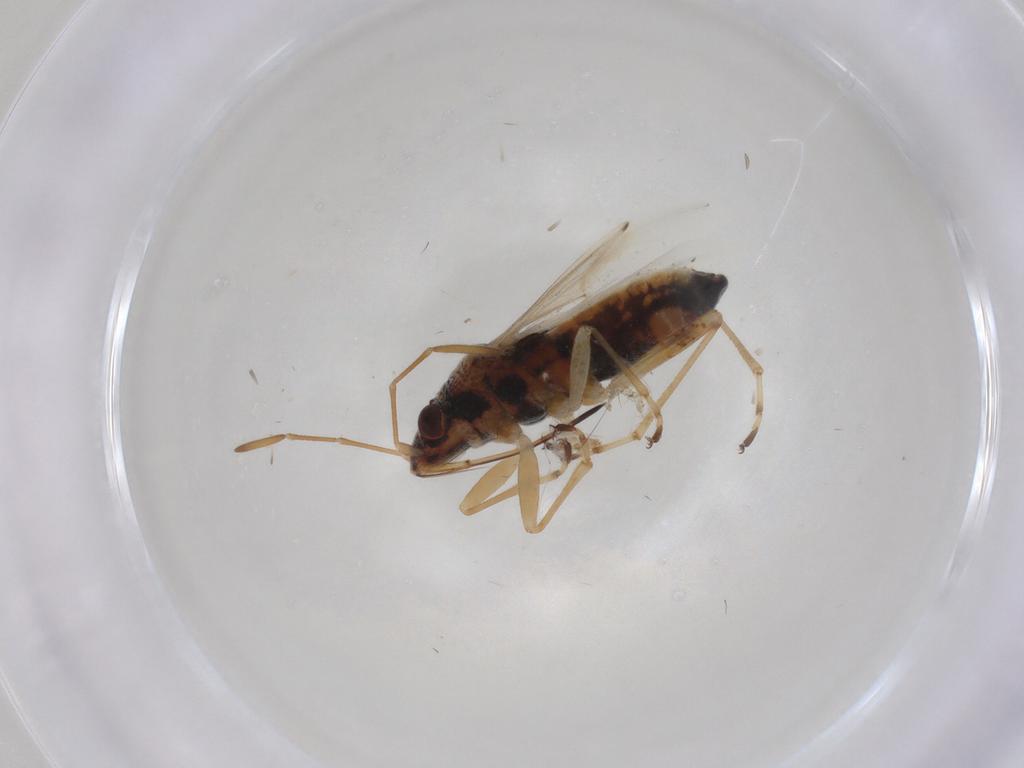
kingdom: Animalia
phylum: Arthropoda
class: Insecta
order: Hemiptera
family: Lygaeidae
